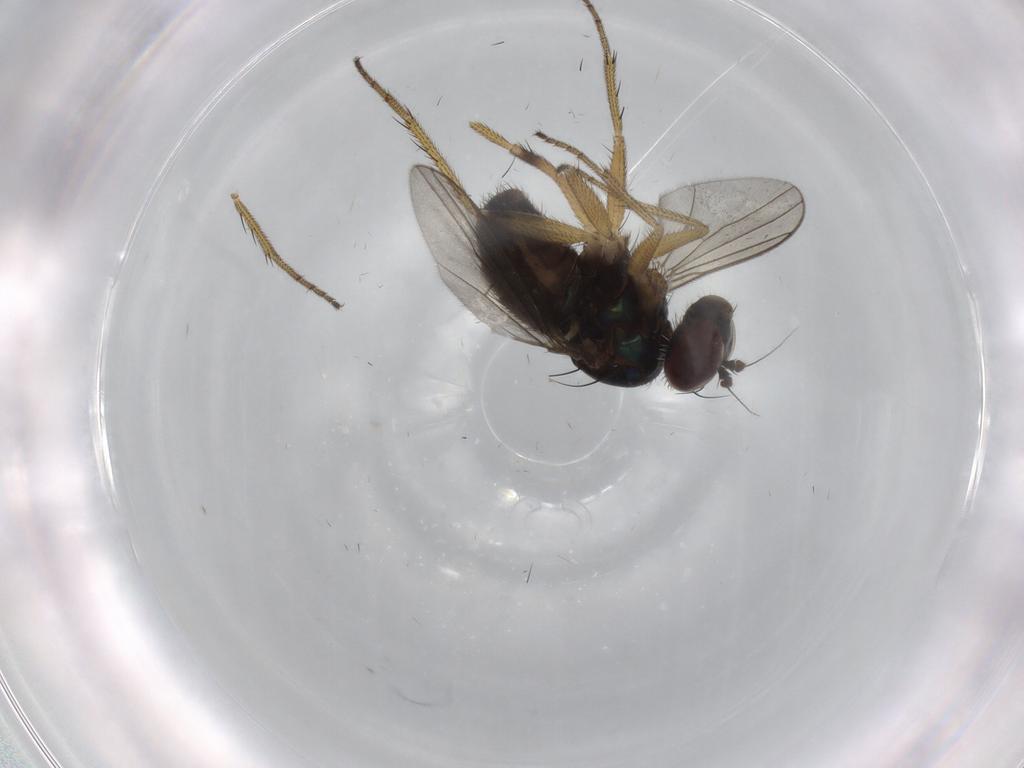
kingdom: Animalia
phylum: Arthropoda
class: Insecta
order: Diptera
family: Dolichopodidae
